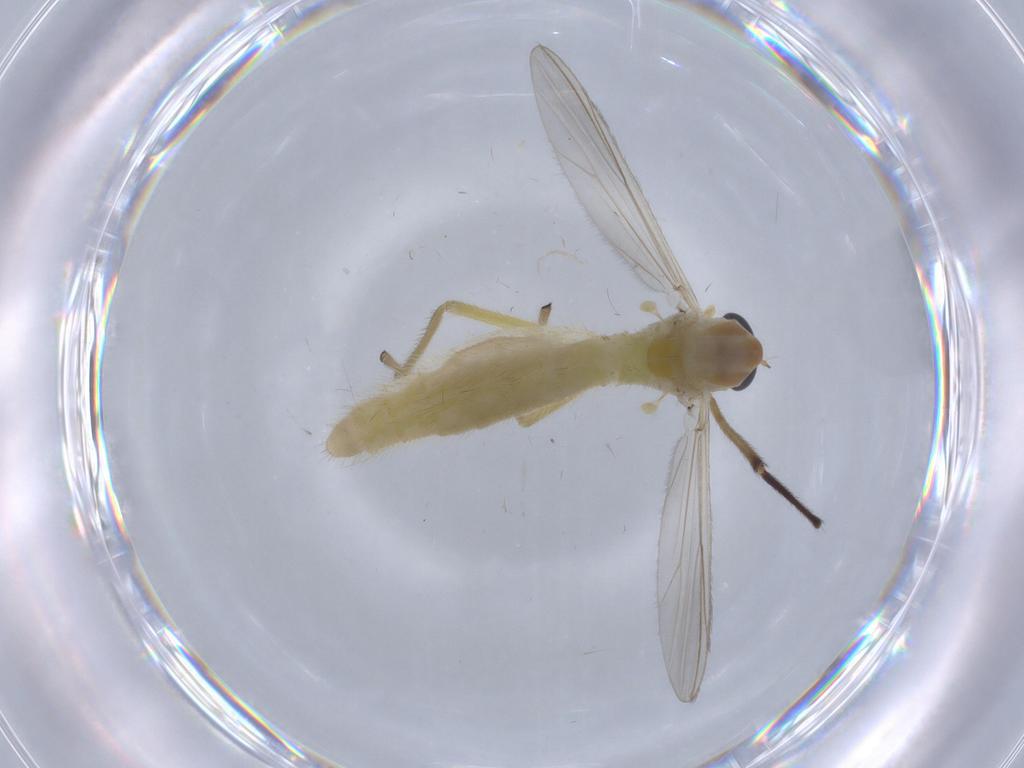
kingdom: Animalia
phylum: Arthropoda
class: Insecta
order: Diptera
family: Chironomidae
